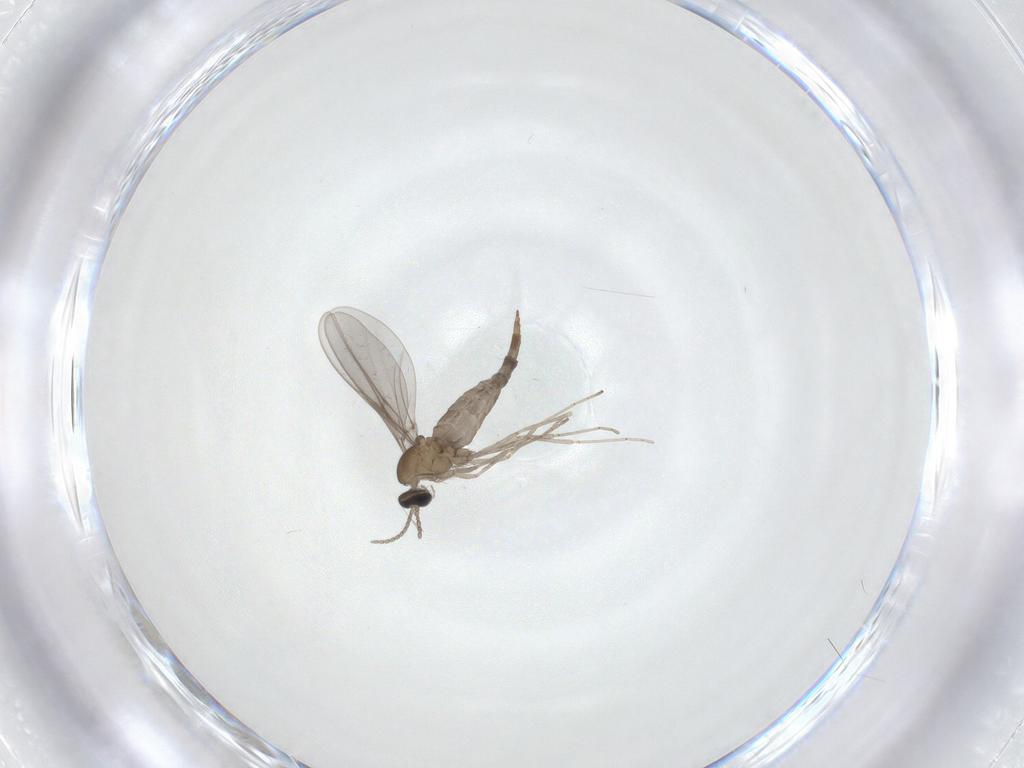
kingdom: Animalia
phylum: Arthropoda
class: Insecta
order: Diptera
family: Cecidomyiidae
